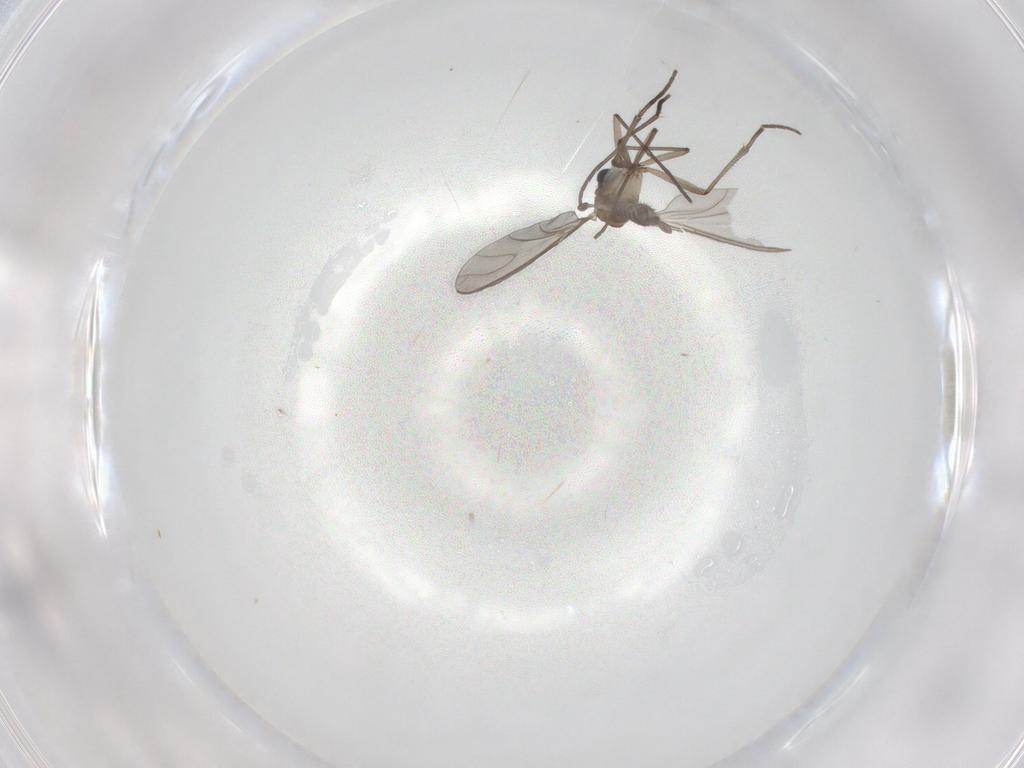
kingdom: Animalia
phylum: Arthropoda
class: Insecta
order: Diptera
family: Sciaridae
